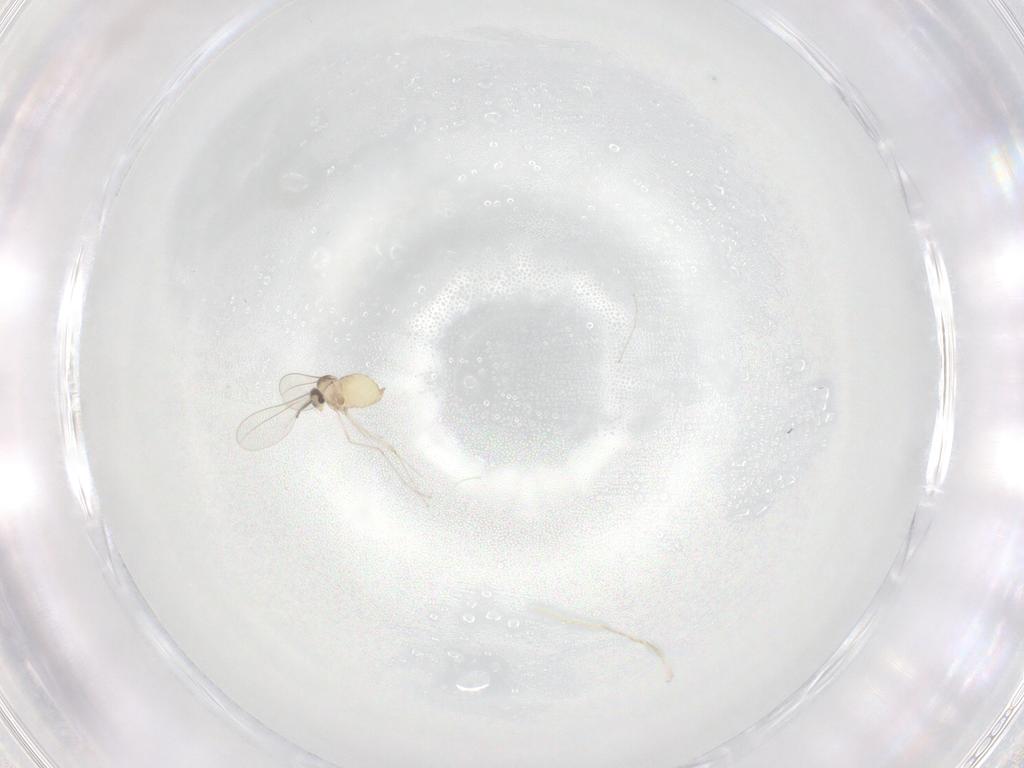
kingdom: Animalia
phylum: Arthropoda
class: Insecta
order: Diptera
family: Cecidomyiidae
